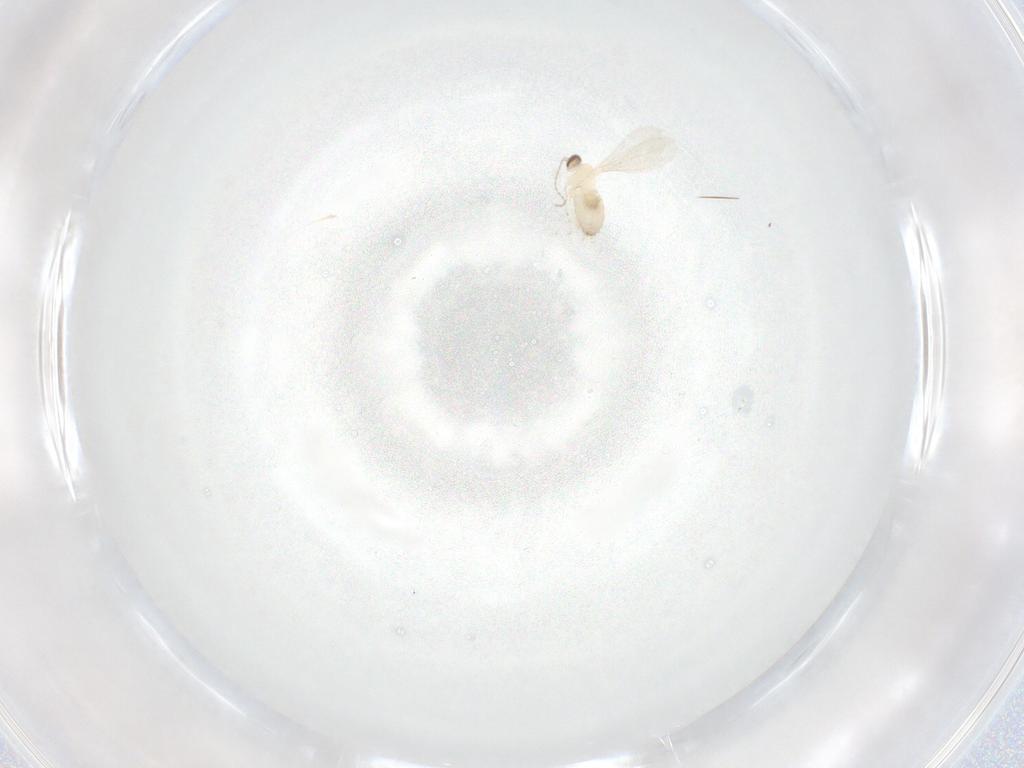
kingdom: Animalia
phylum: Arthropoda
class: Insecta
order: Diptera
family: Cecidomyiidae
